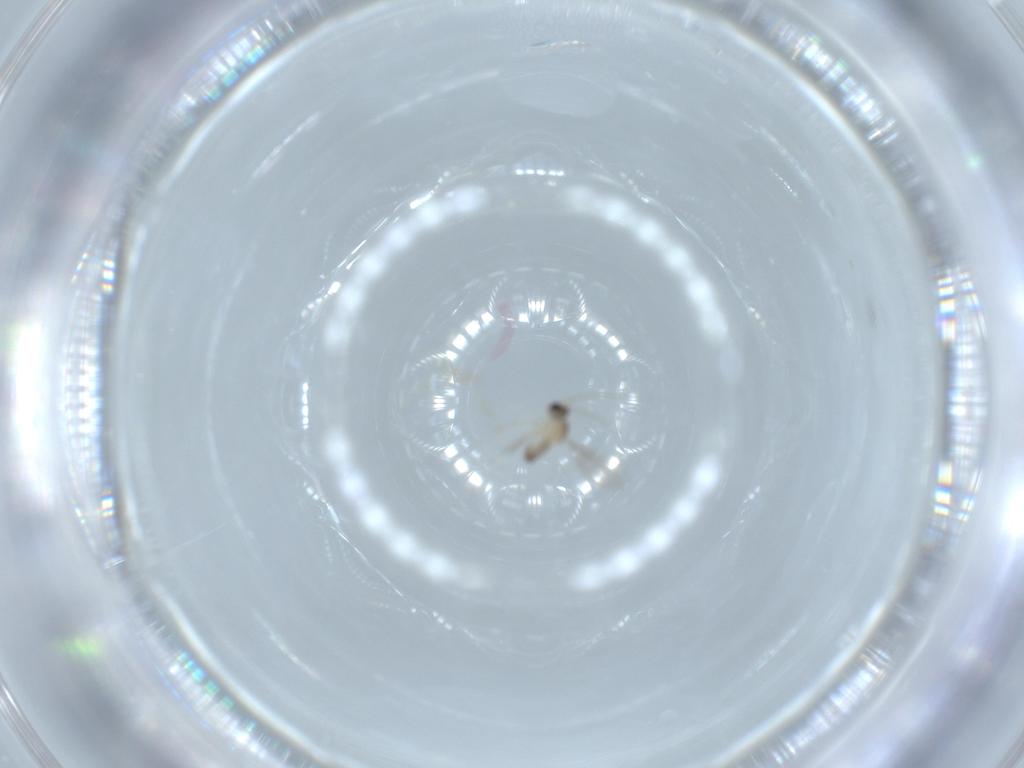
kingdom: Animalia
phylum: Arthropoda
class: Insecta
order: Diptera
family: Cecidomyiidae
